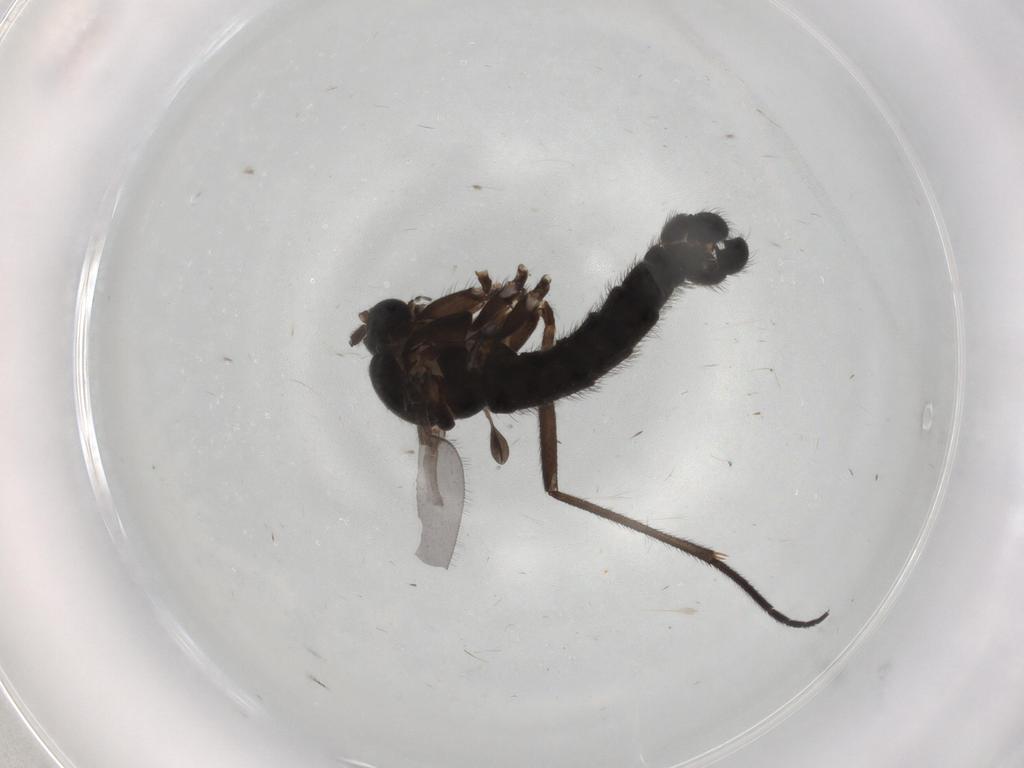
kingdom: Animalia
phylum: Arthropoda
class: Insecta
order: Diptera
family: Sciaridae
